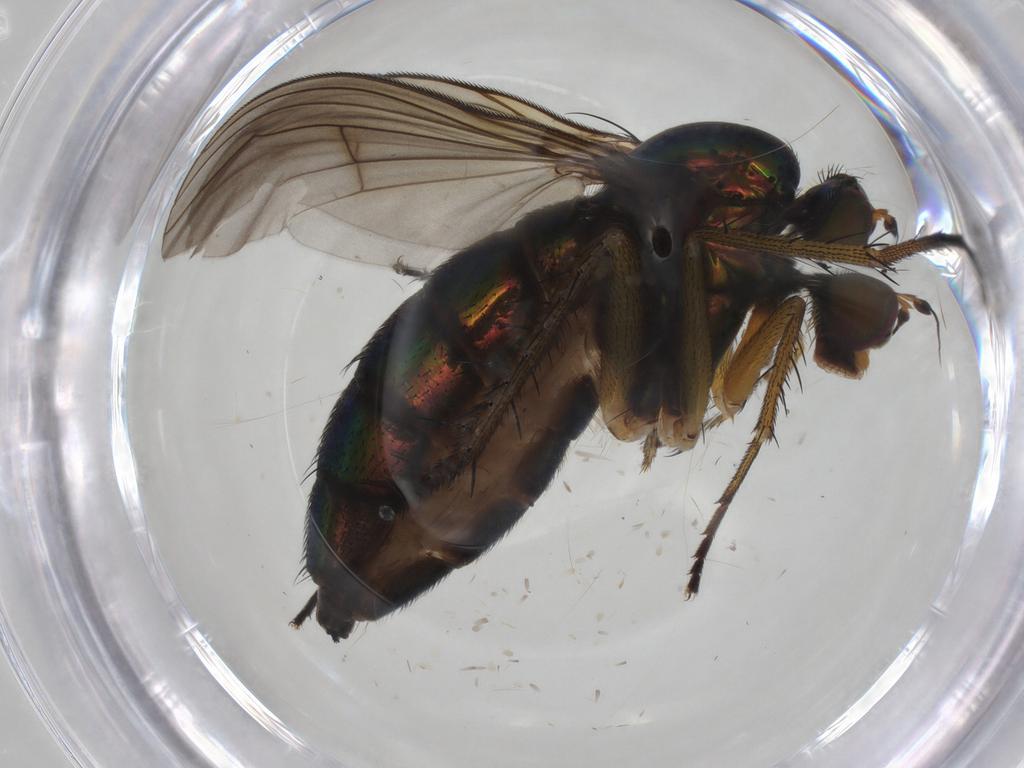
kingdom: Animalia
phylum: Arthropoda
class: Insecta
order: Diptera
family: Dolichopodidae
